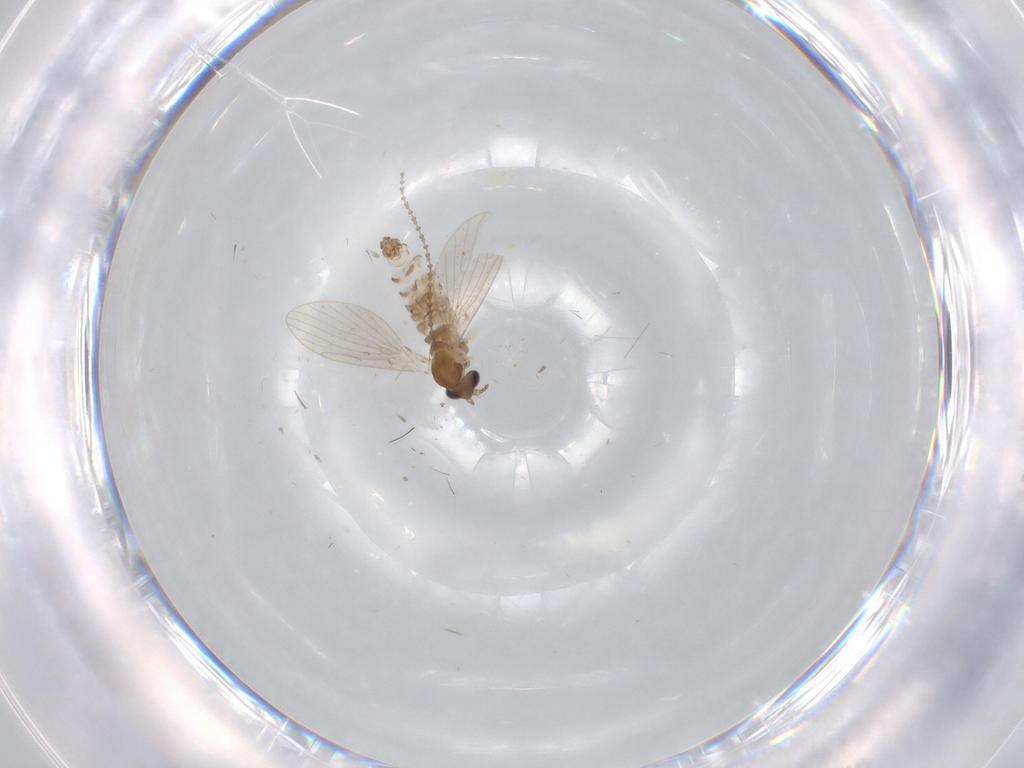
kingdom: Animalia
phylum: Arthropoda
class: Insecta
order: Diptera
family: Cecidomyiidae
